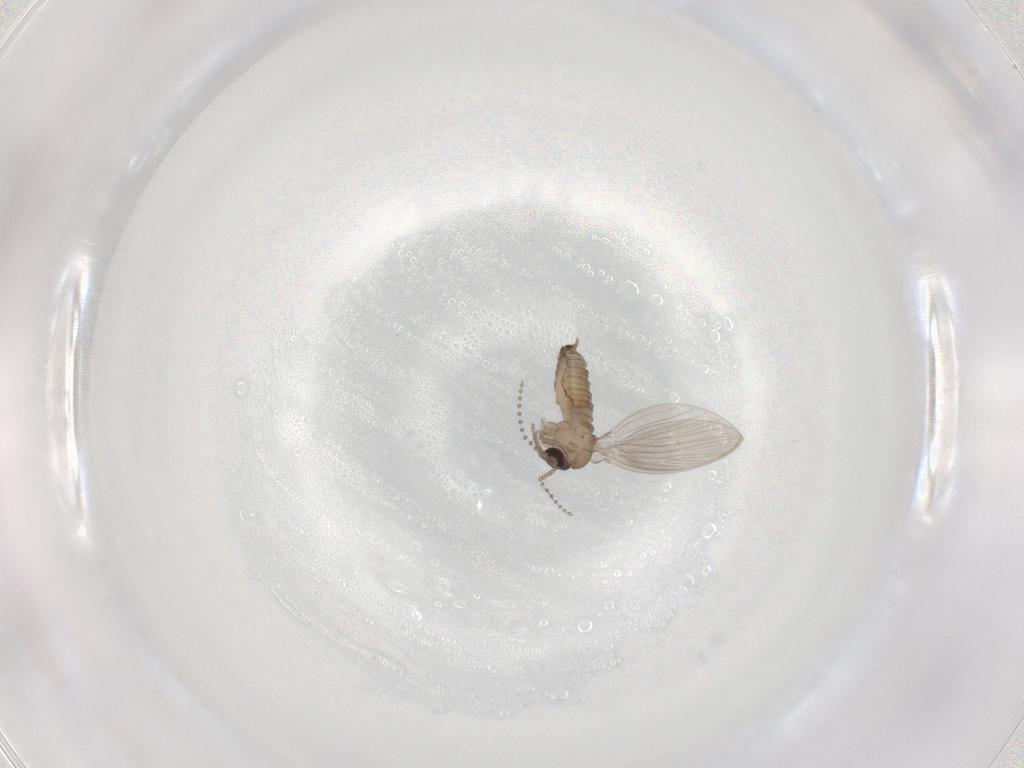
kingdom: Animalia
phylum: Arthropoda
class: Insecta
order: Diptera
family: Psychodidae
